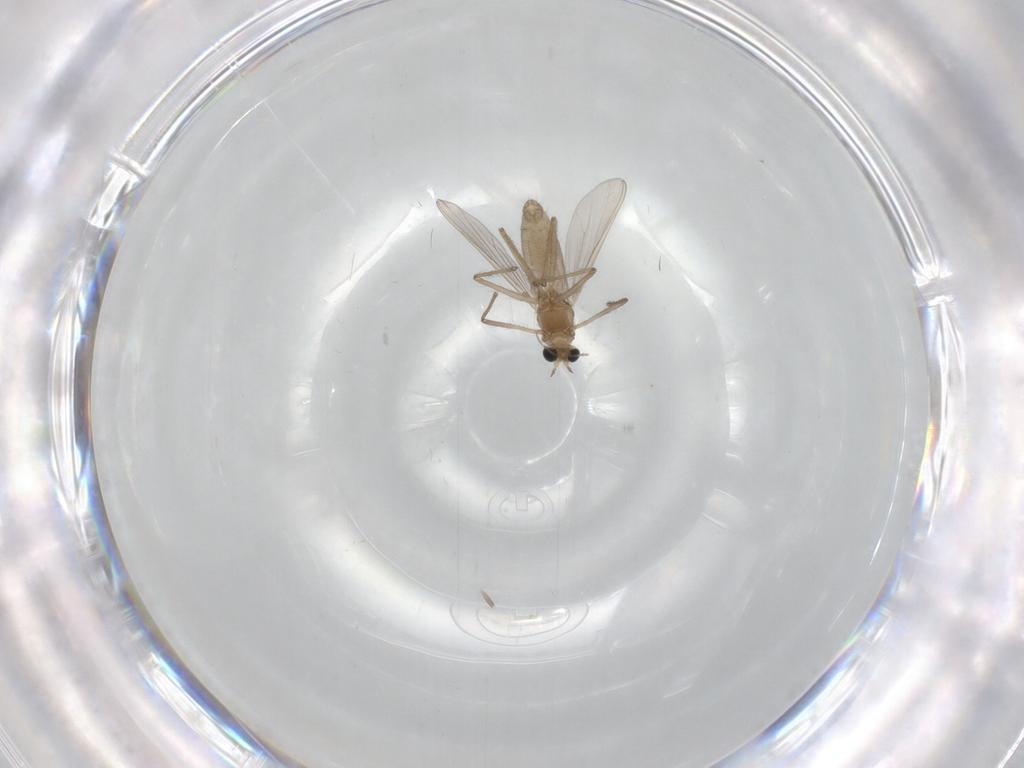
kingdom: Animalia
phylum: Arthropoda
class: Insecta
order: Diptera
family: Chironomidae
